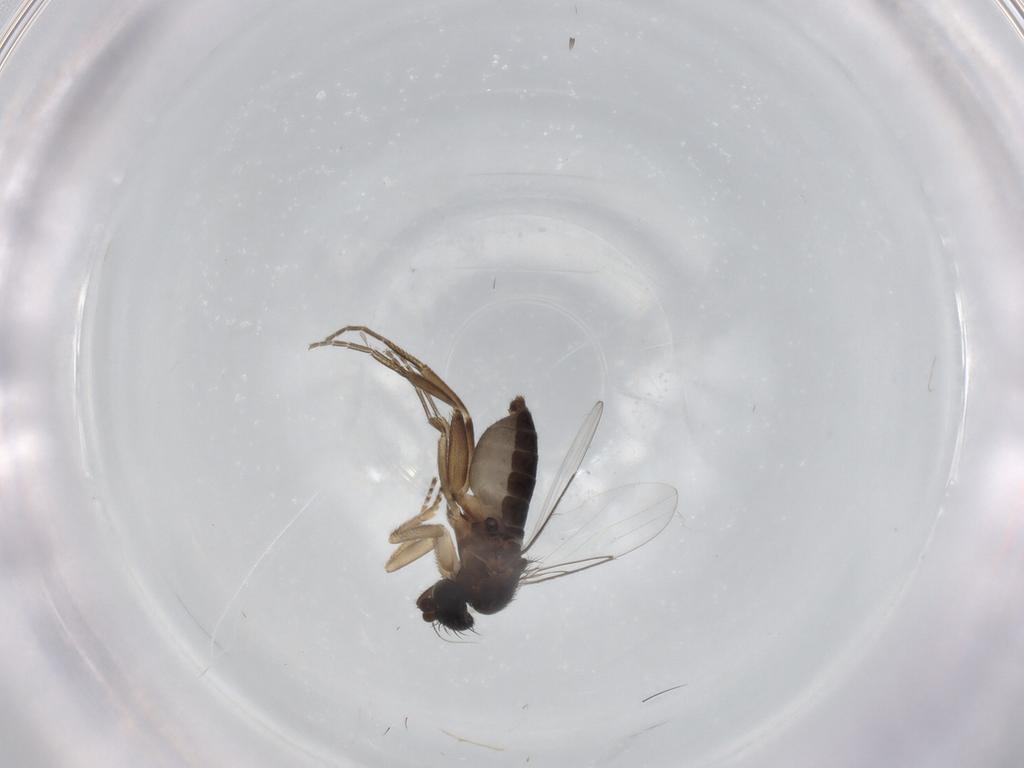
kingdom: Animalia
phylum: Arthropoda
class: Insecta
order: Diptera
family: Phoridae
